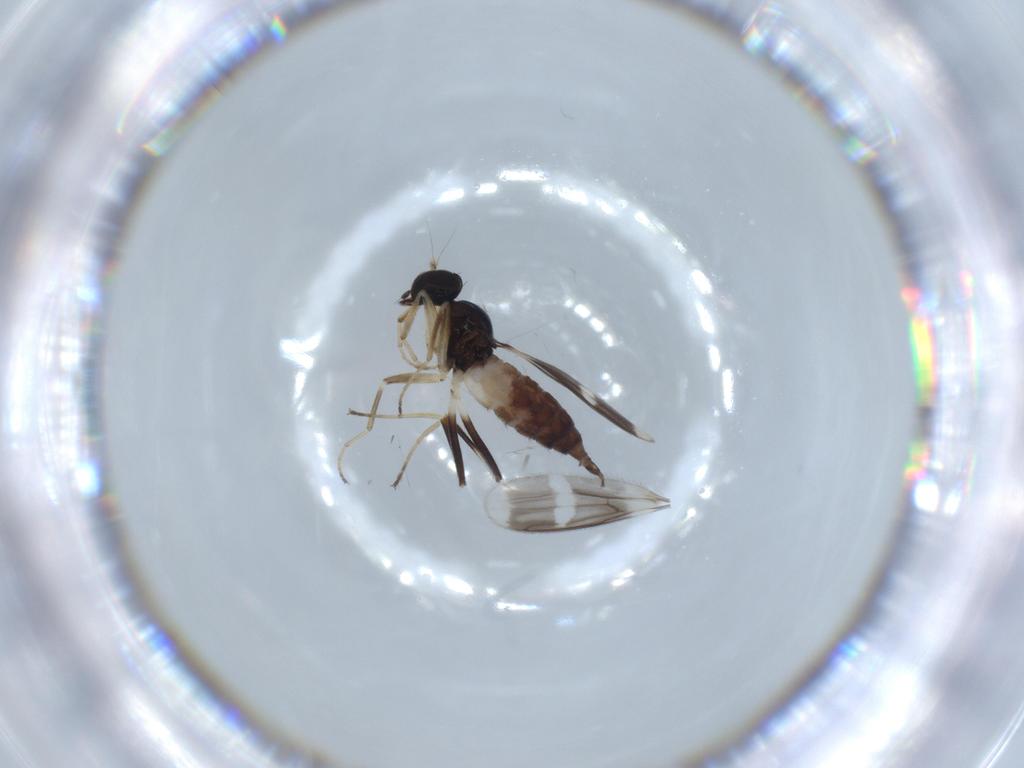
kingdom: Animalia
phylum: Arthropoda
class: Insecta
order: Diptera
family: Hybotidae
